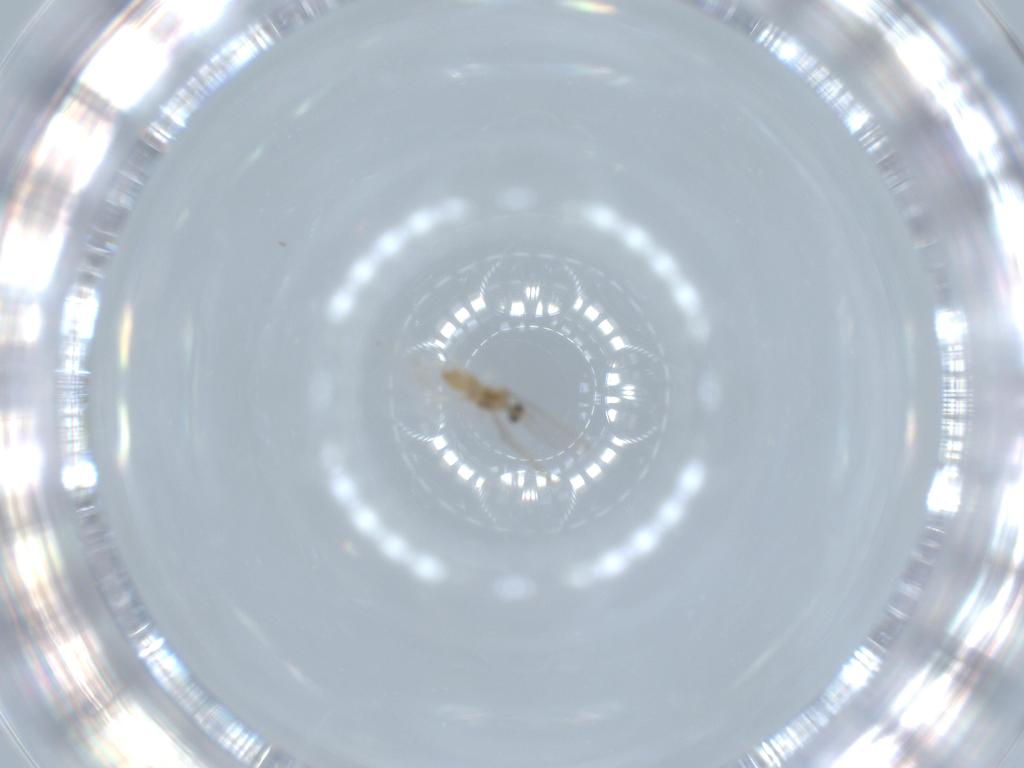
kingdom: Animalia
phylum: Arthropoda
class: Insecta
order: Diptera
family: Cecidomyiidae
